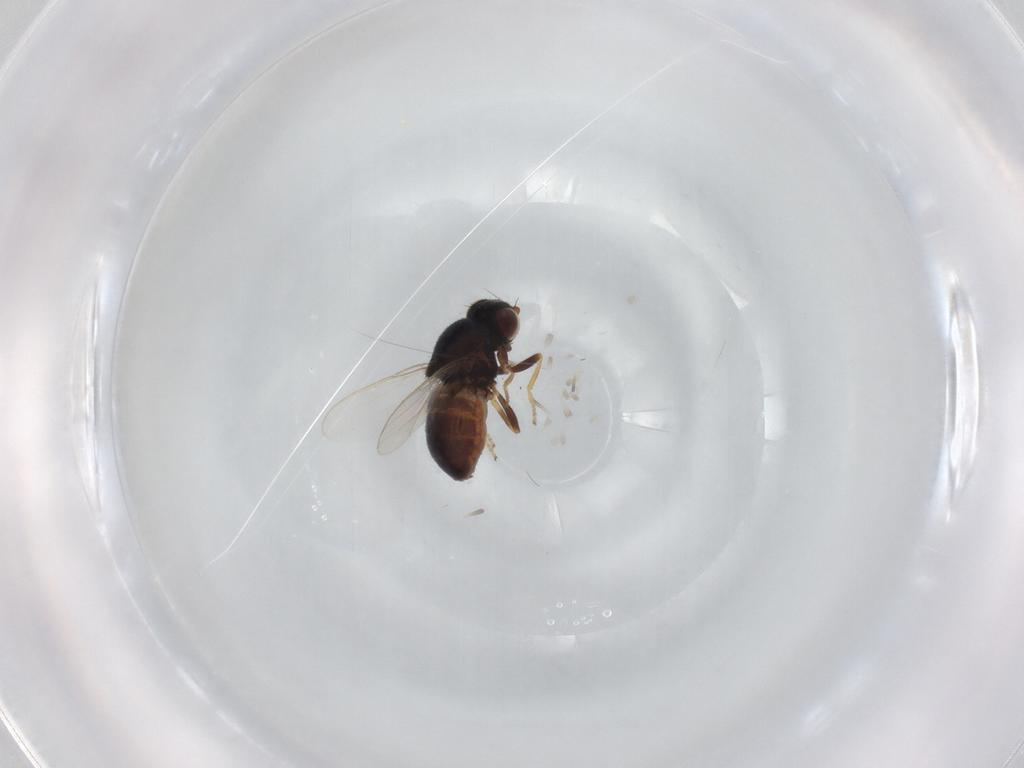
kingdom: Animalia
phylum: Arthropoda
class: Insecta
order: Diptera
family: Chloropidae
